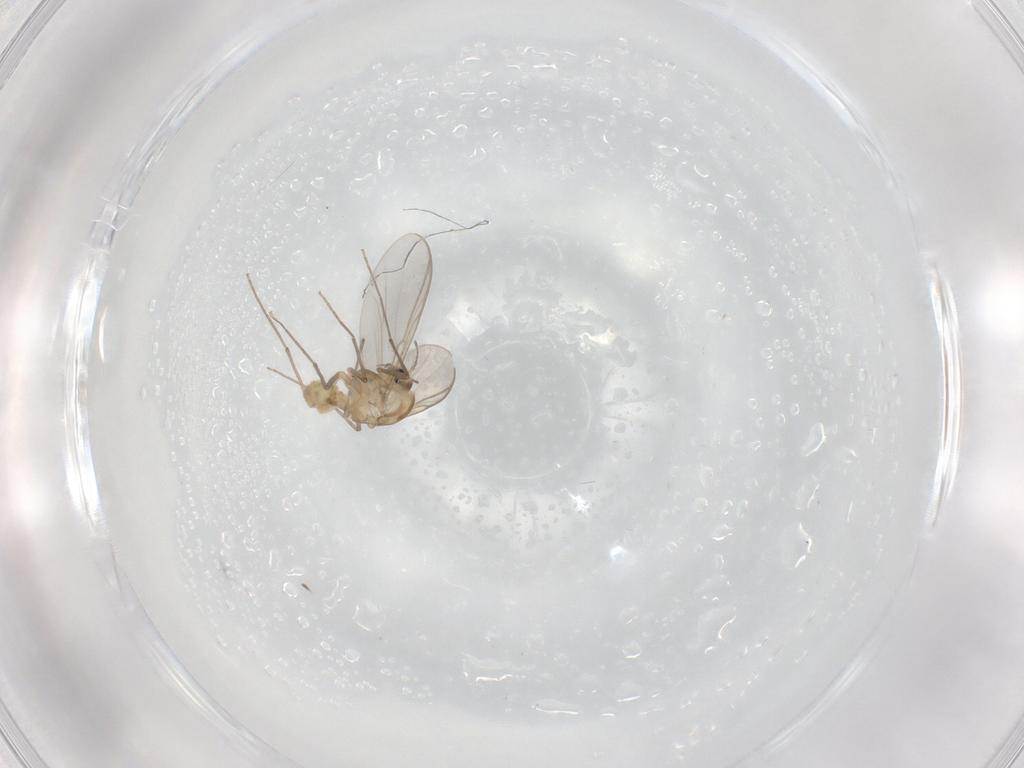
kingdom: Animalia
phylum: Arthropoda
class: Insecta
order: Diptera
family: Chironomidae
